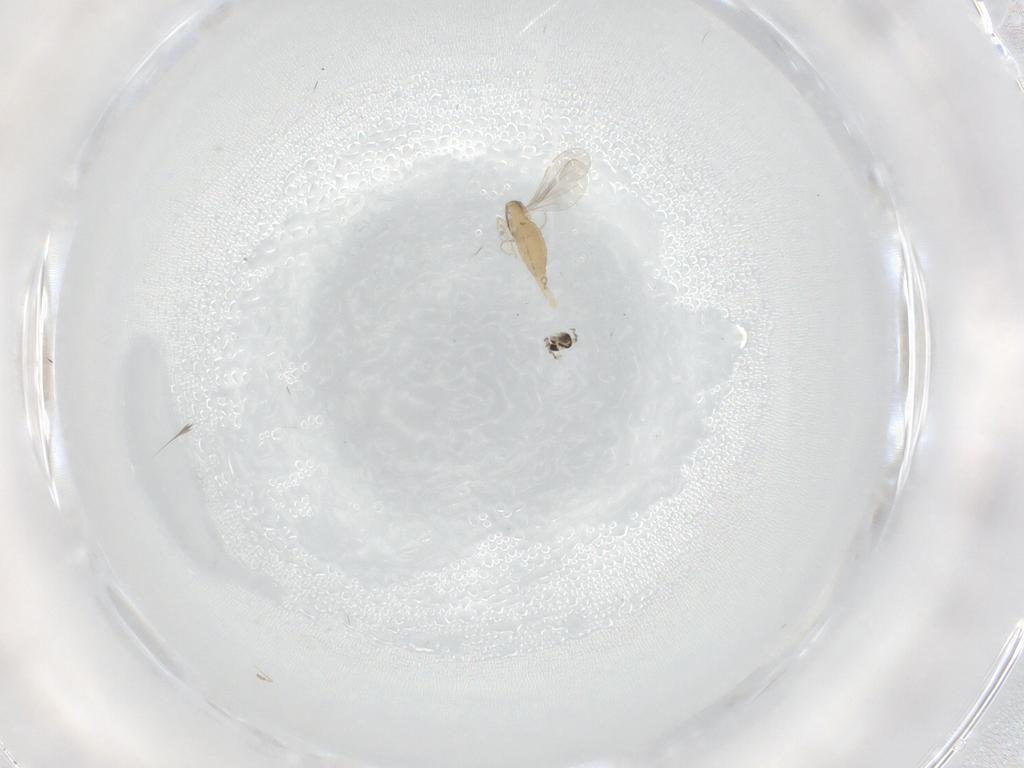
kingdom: Animalia
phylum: Arthropoda
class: Insecta
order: Diptera
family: Cecidomyiidae
